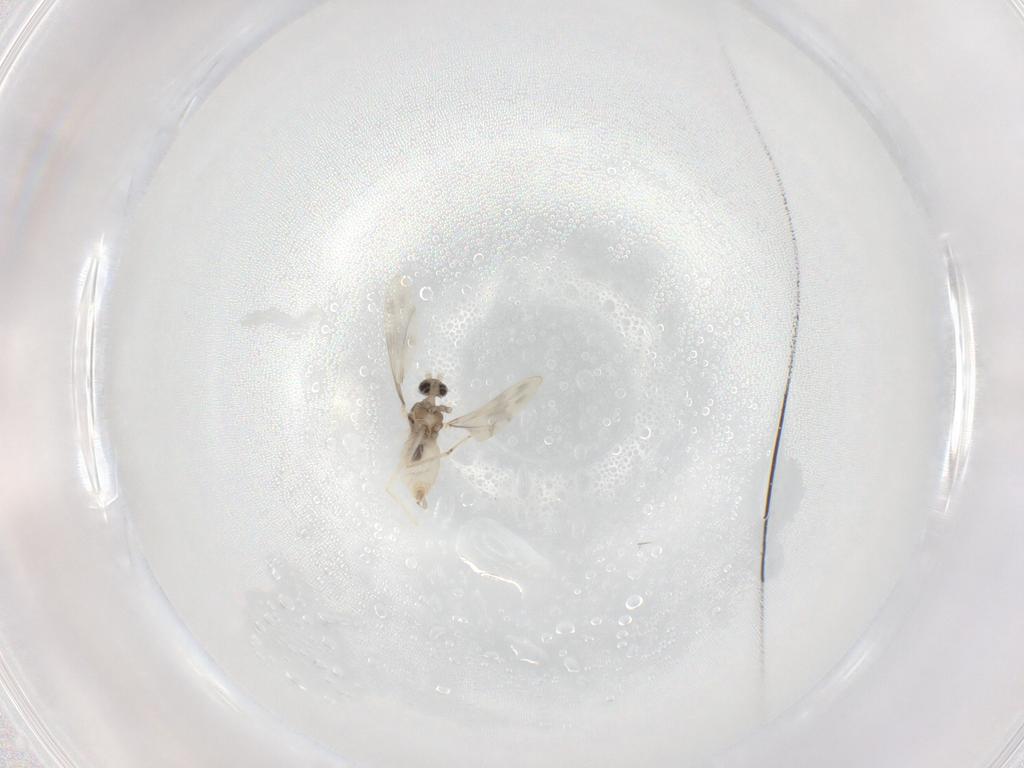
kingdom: Animalia
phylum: Arthropoda
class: Insecta
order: Diptera
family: Cecidomyiidae
